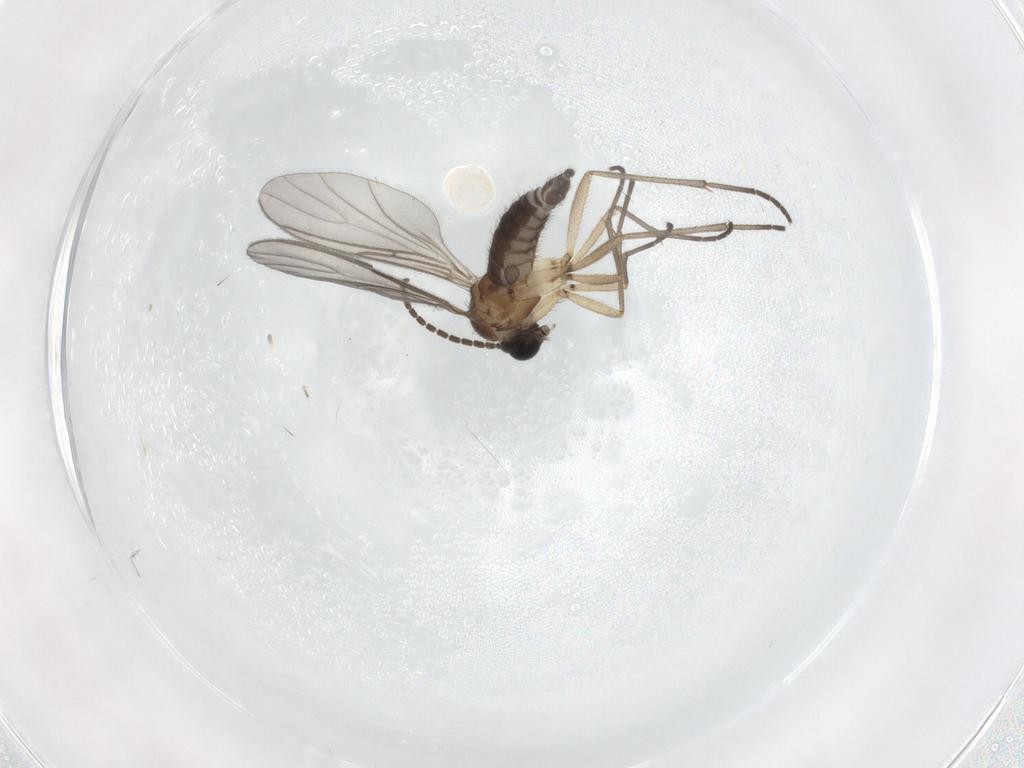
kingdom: Animalia
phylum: Arthropoda
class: Insecta
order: Diptera
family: Sciaridae
